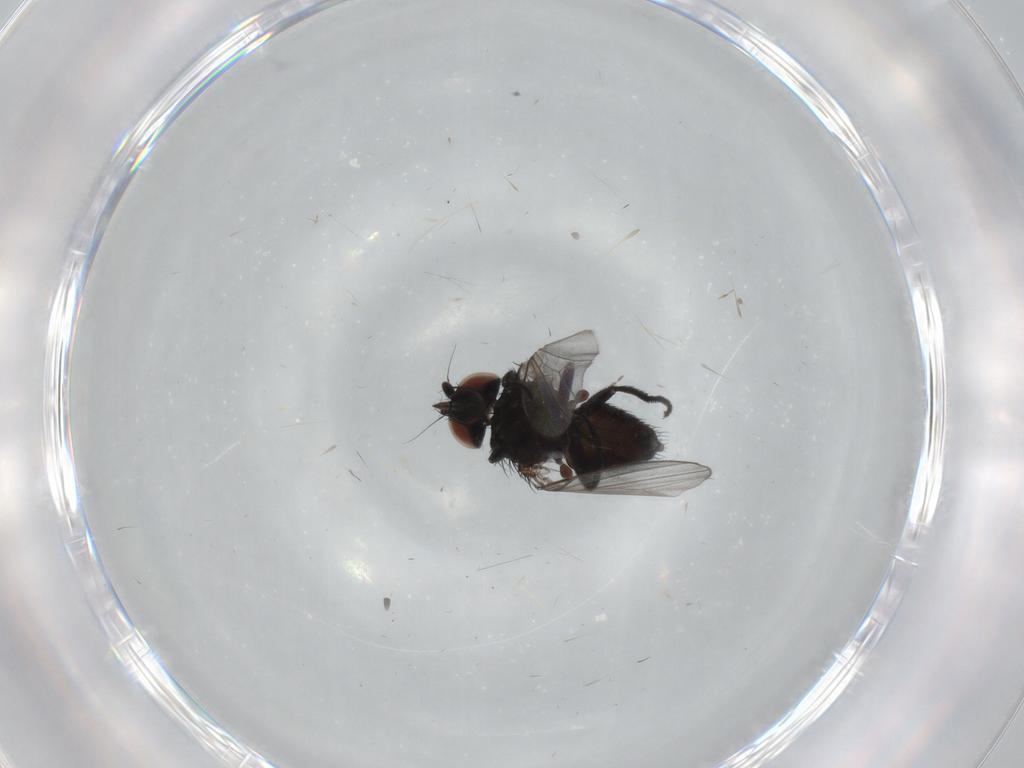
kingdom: Animalia
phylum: Arthropoda
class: Insecta
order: Diptera
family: Milichiidae
